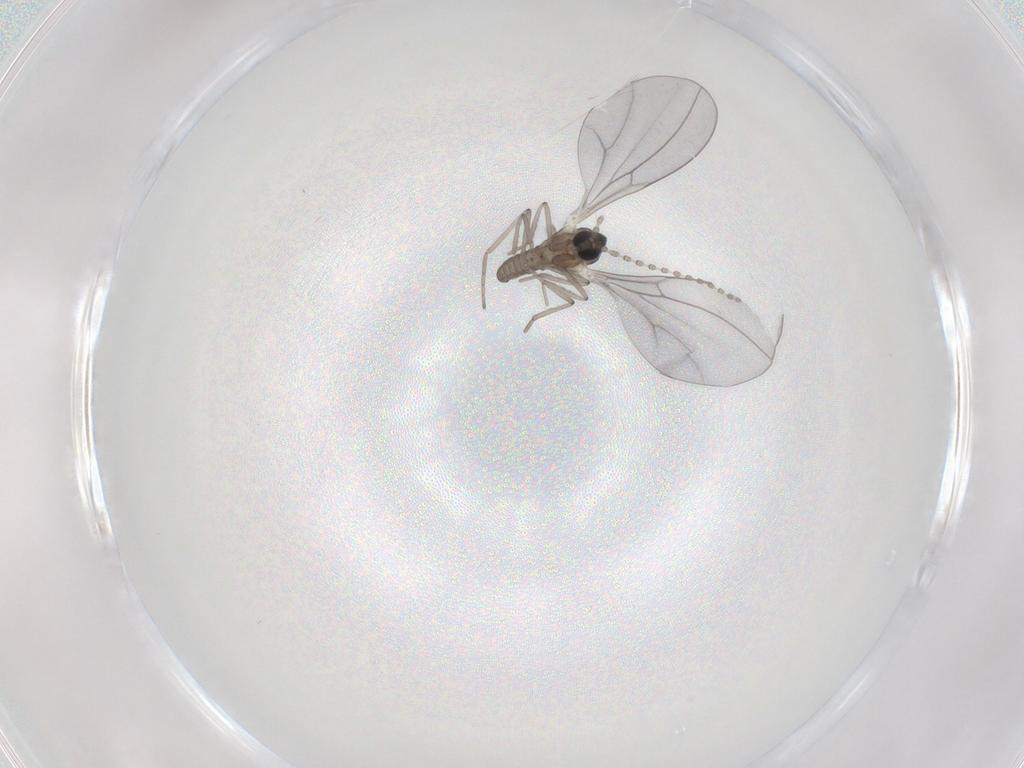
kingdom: Animalia
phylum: Arthropoda
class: Insecta
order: Diptera
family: Cecidomyiidae
